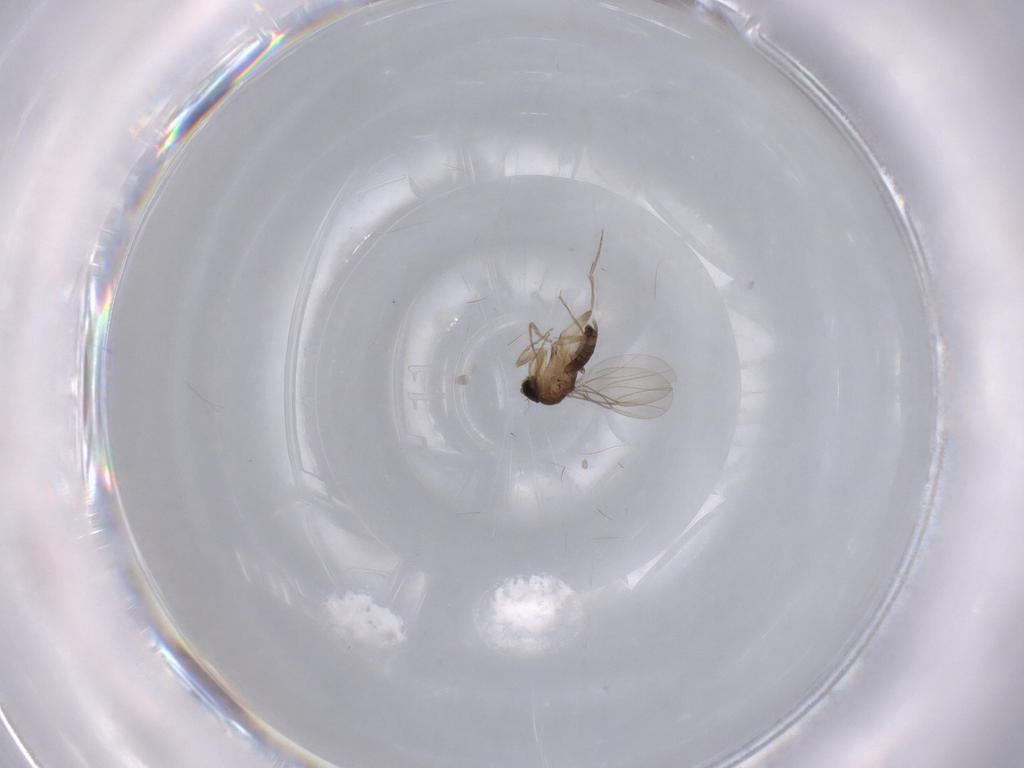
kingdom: Animalia
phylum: Arthropoda
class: Insecta
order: Diptera
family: Phoridae
